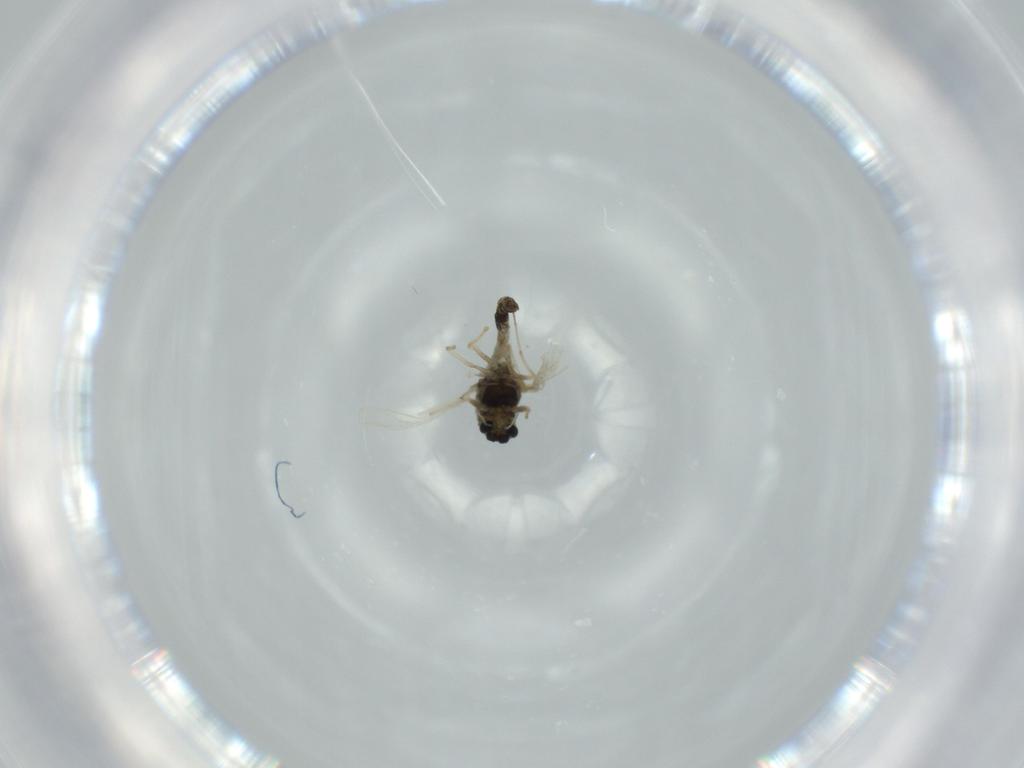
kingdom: Animalia
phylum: Arthropoda
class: Insecta
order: Diptera
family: Chironomidae
